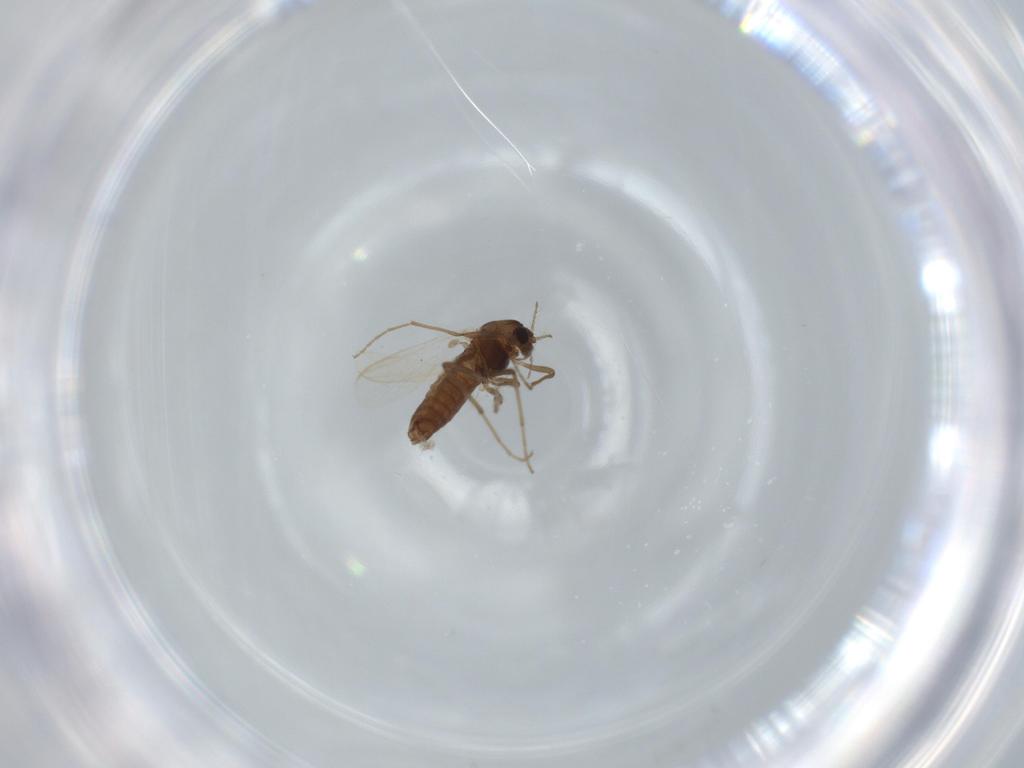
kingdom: Animalia
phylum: Arthropoda
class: Insecta
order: Diptera
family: Chironomidae
